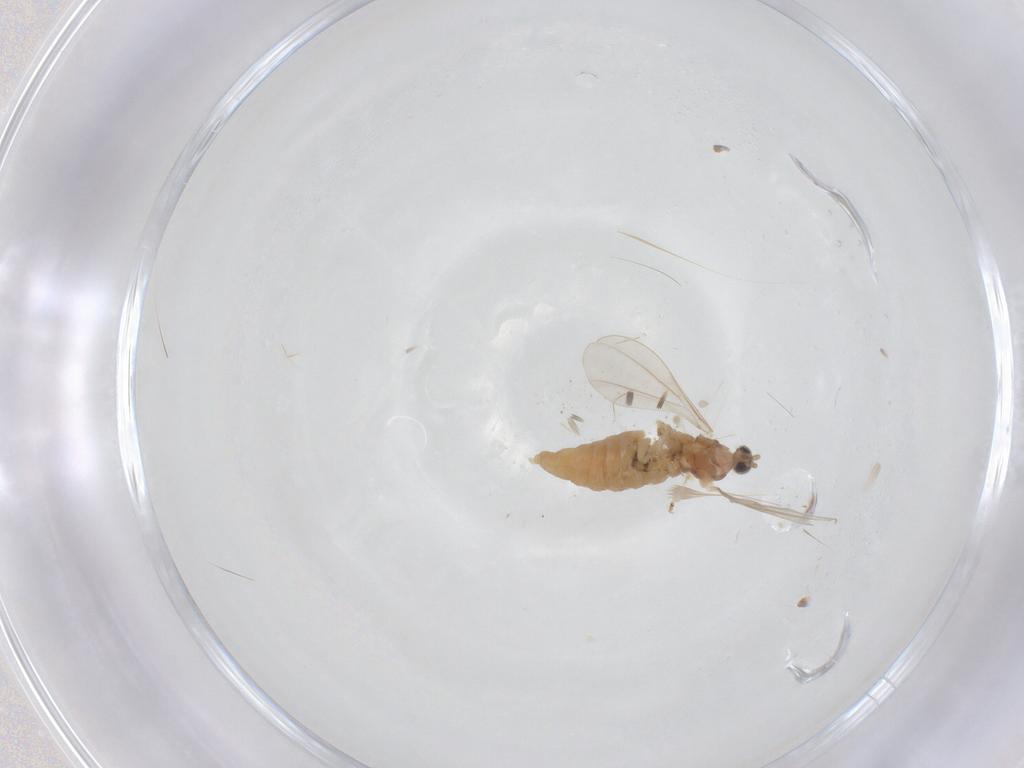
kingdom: Animalia
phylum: Arthropoda
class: Insecta
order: Diptera
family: Cecidomyiidae
